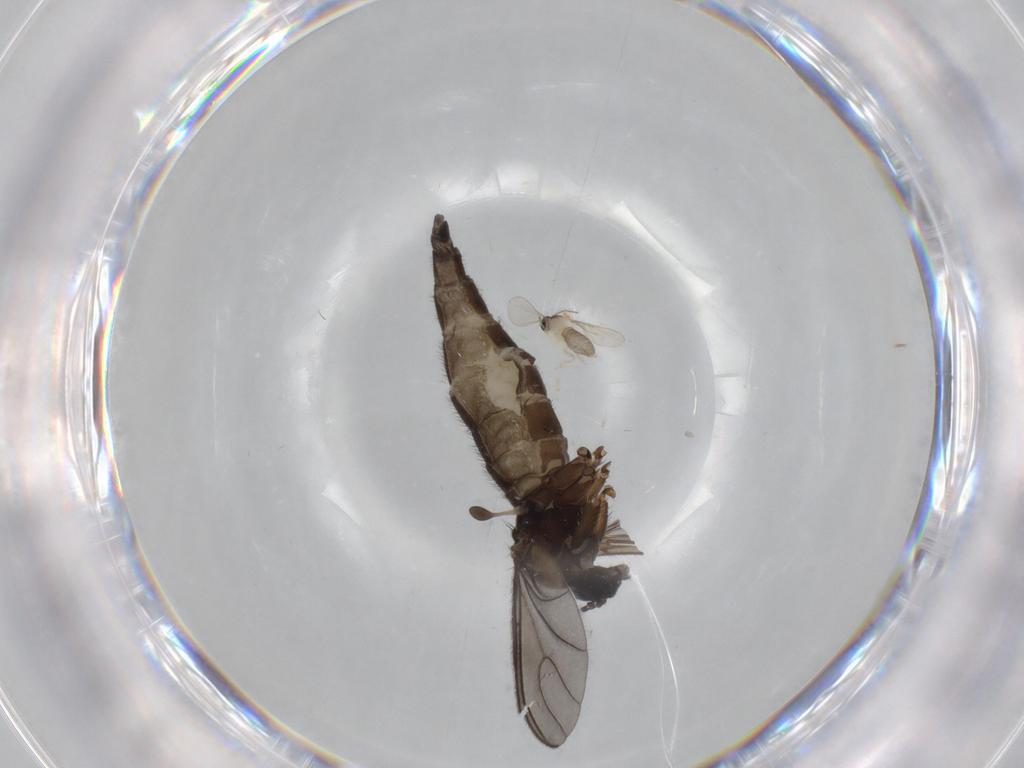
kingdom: Animalia
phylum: Arthropoda
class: Insecta
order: Diptera
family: Sciaridae
